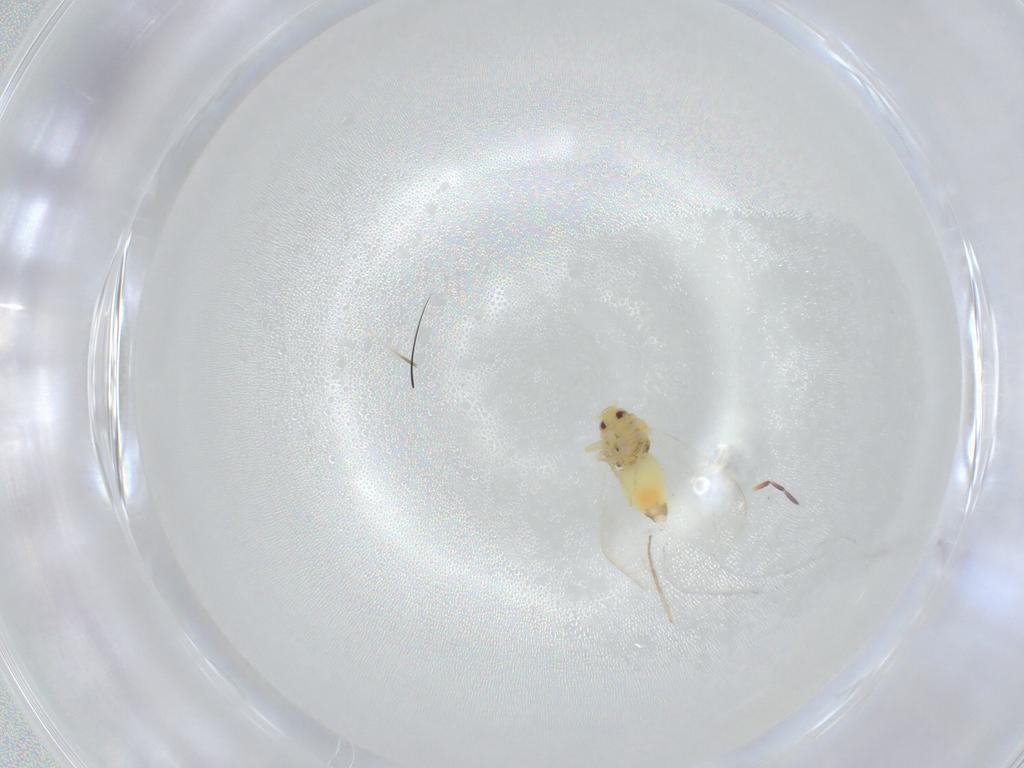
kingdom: Animalia
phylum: Arthropoda
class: Insecta
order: Hemiptera
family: Aleyrodidae
